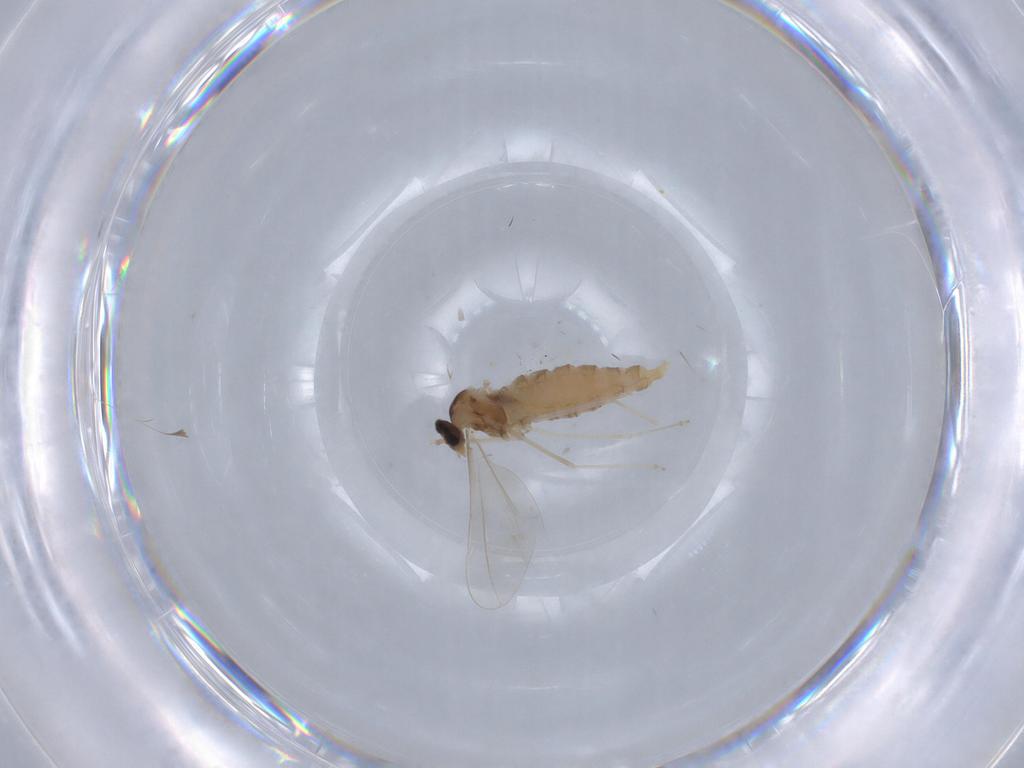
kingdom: Animalia
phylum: Arthropoda
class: Insecta
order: Diptera
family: Cecidomyiidae
